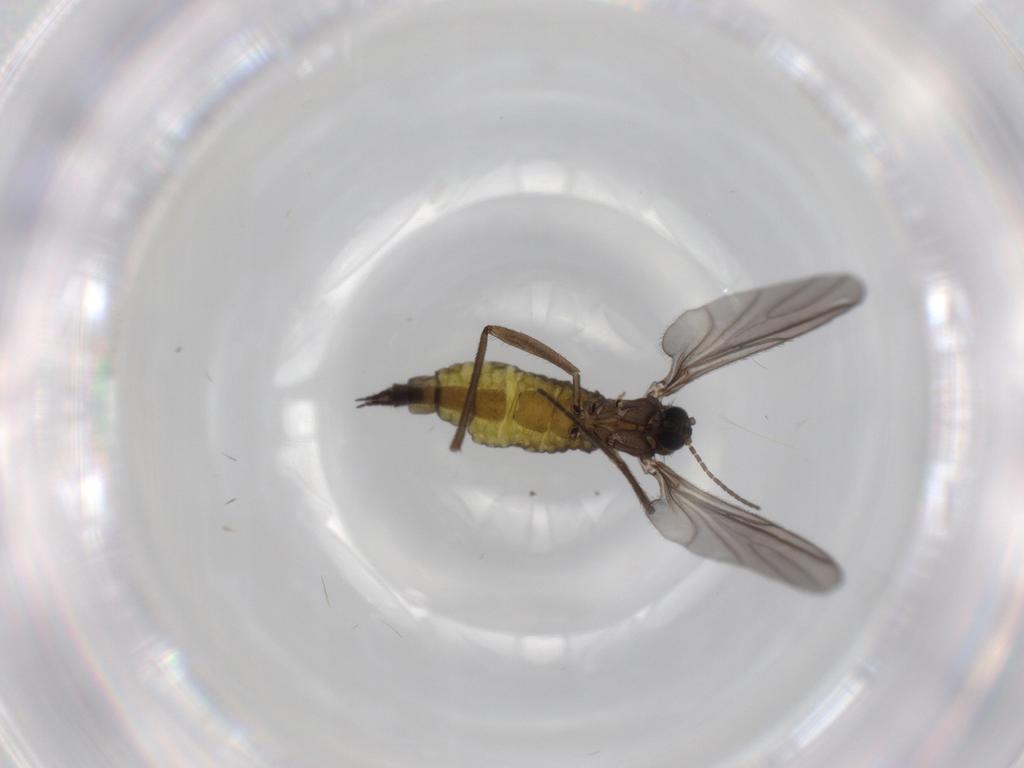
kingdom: Animalia
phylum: Arthropoda
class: Insecta
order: Diptera
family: Sciaridae
